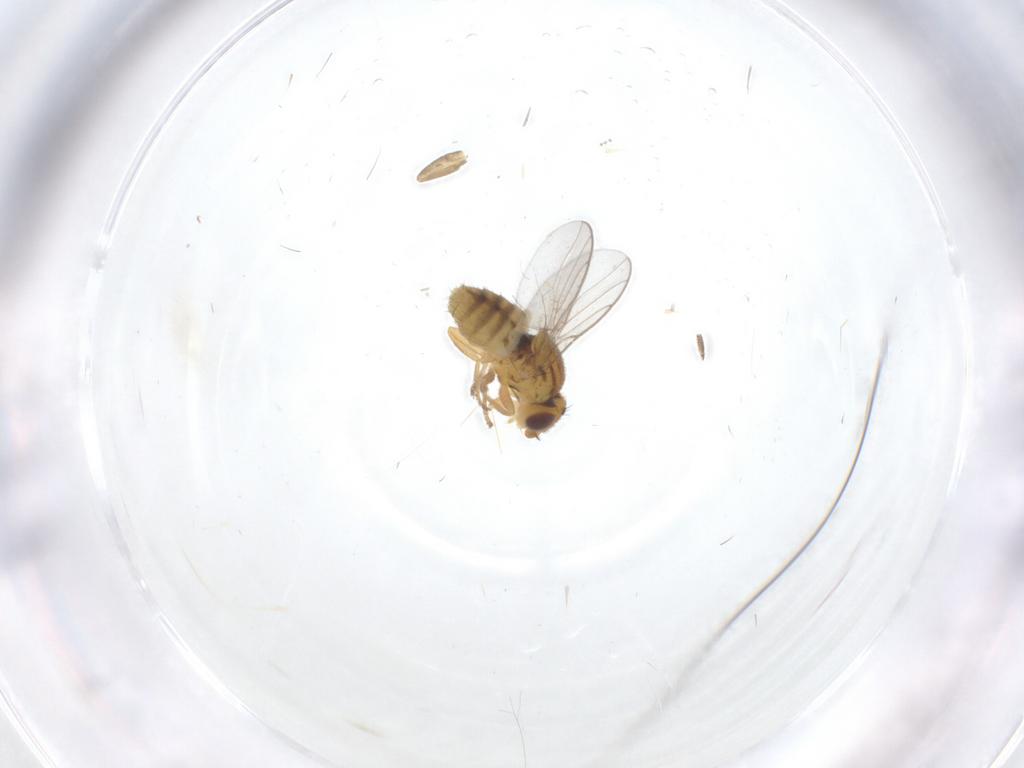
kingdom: Animalia
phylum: Arthropoda
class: Insecta
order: Diptera
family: Chloropidae
